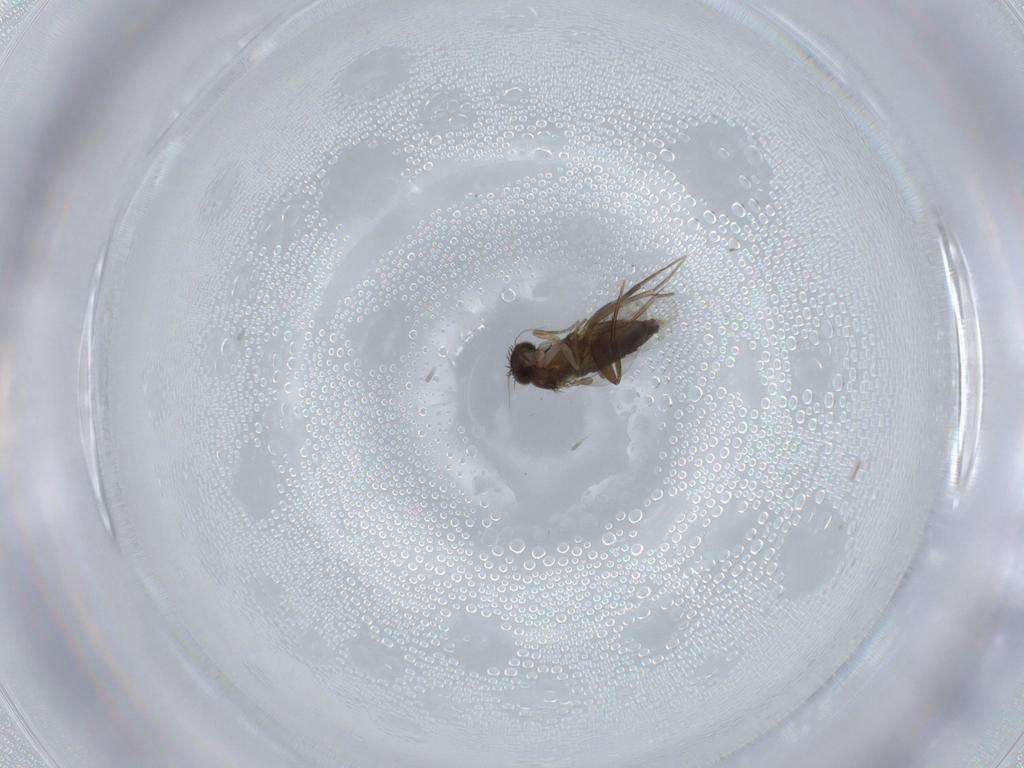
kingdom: Animalia
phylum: Arthropoda
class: Insecta
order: Diptera
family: Phoridae
